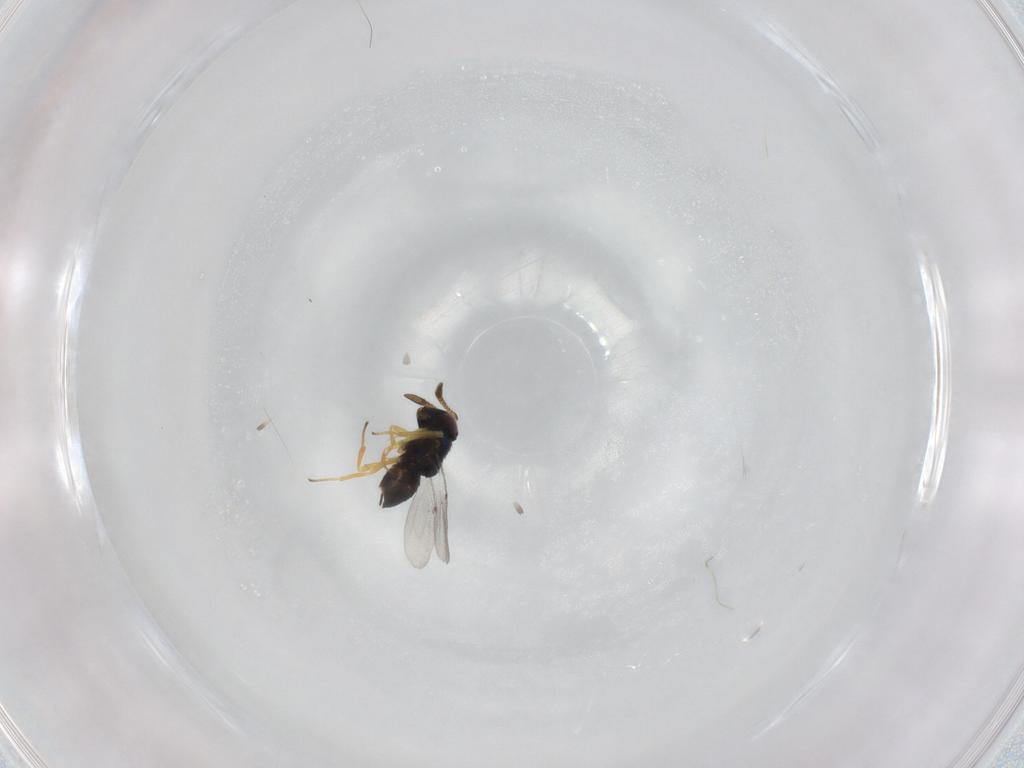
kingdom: Animalia
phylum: Arthropoda
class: Insecta
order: Hymenoptera
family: Encyrtidae
